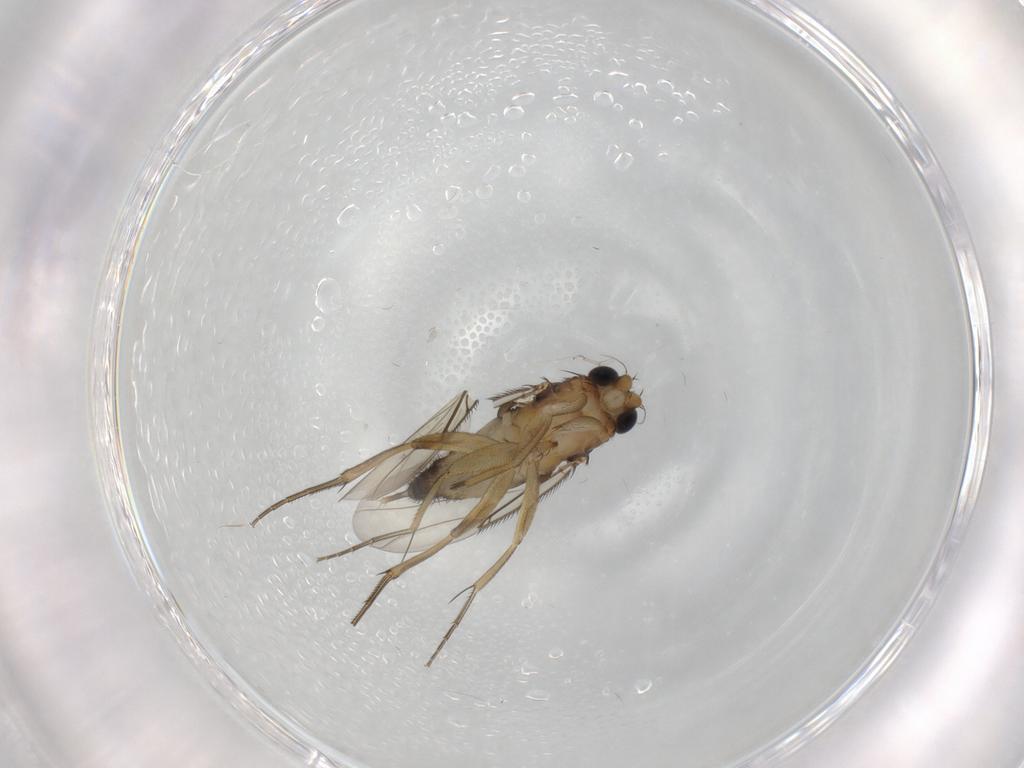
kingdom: Animalia
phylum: Arthropoda
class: Insecta
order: Diptera
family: Phoridae
